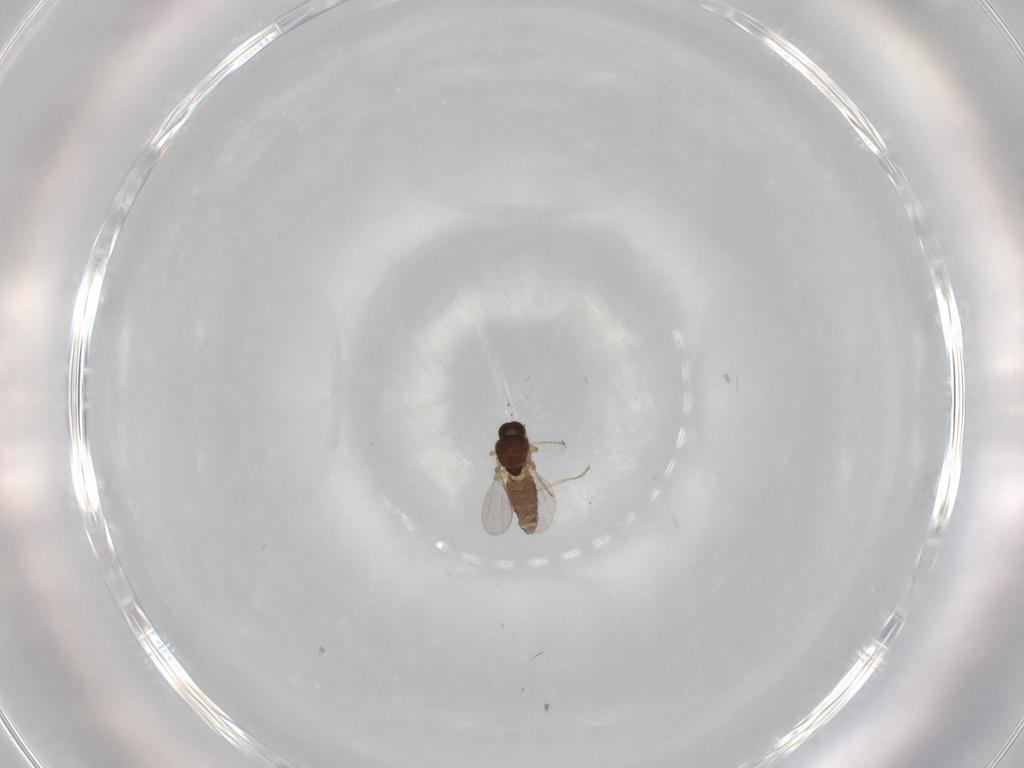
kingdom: Animalia
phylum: Arthropoda
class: Insecta
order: Diptera
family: Ceratopogonidae
